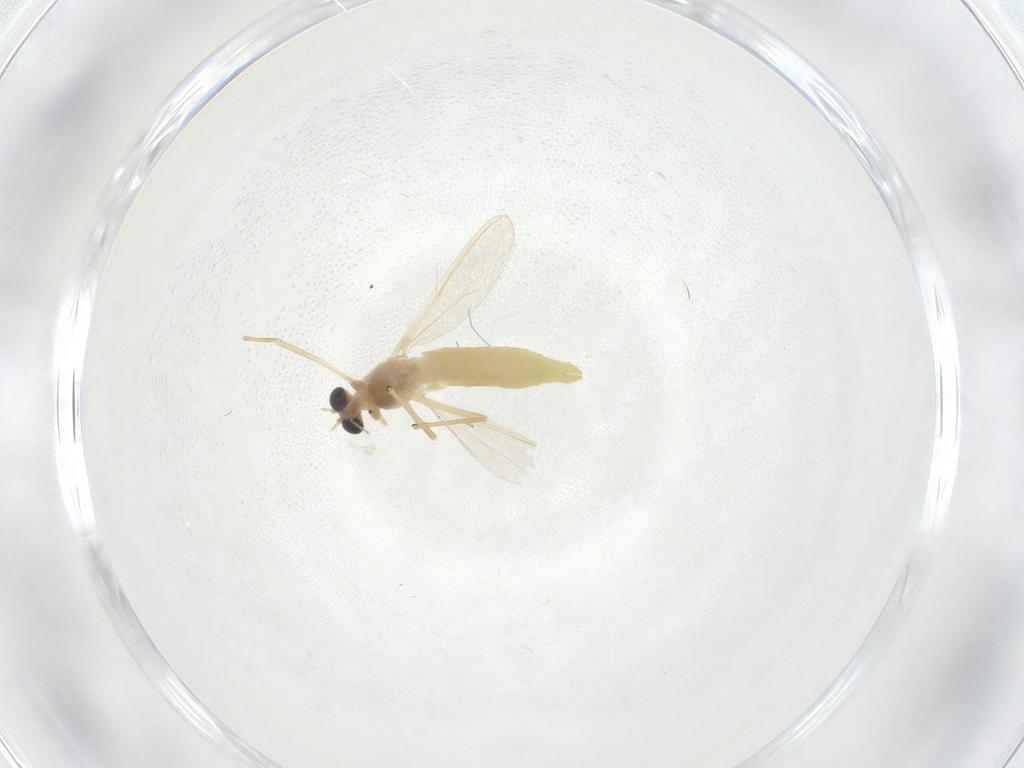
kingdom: Animalia
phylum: Arthropoda
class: Insecta
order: Diptera
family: Chironomidae
